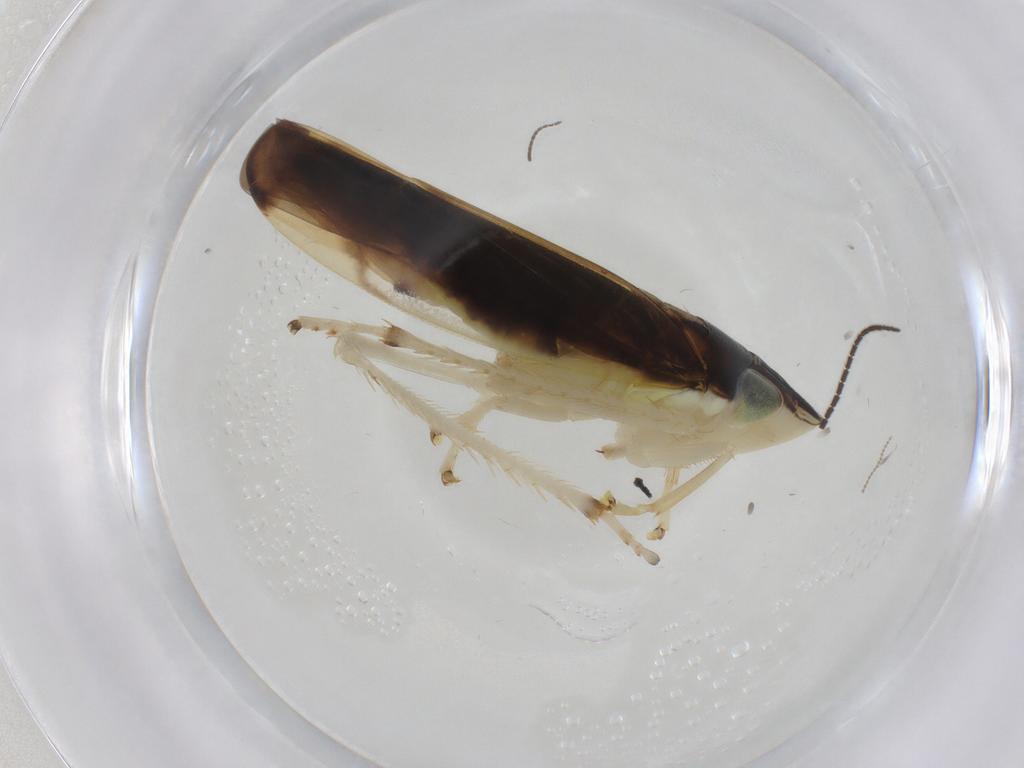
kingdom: Animalia
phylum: Arthropoda
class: Insecta
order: Hemiptera
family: Cicadellidae
